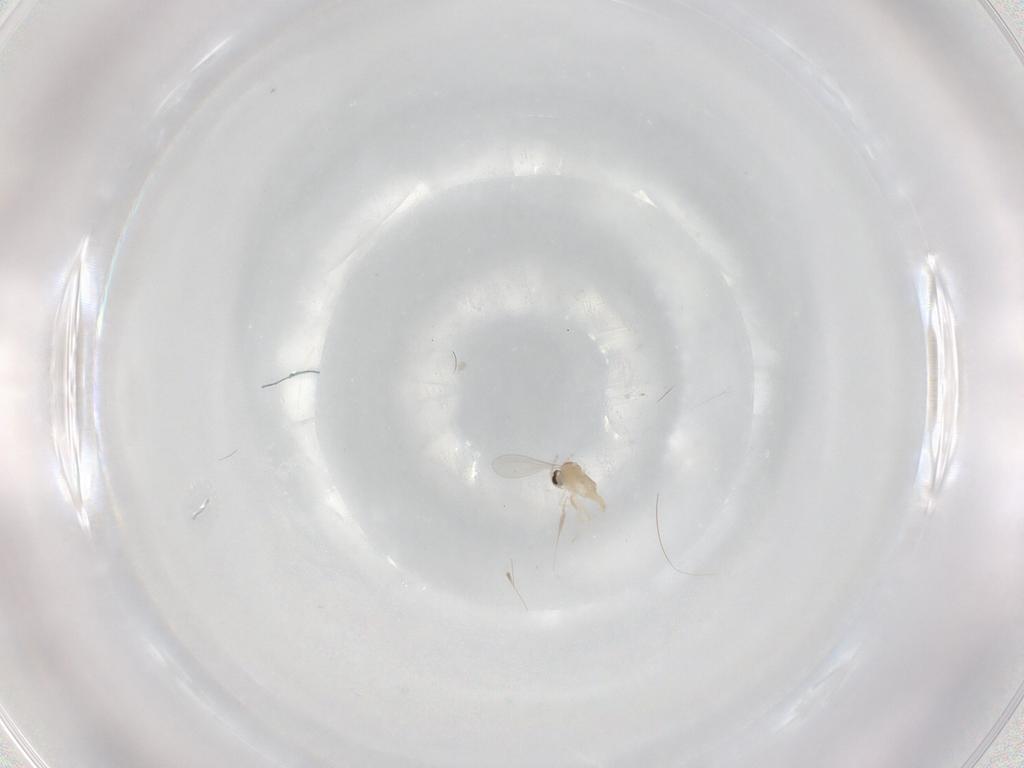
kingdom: Animalia
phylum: Arthropoda
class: Insecta
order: Diptera
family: Cecidomyiidae
